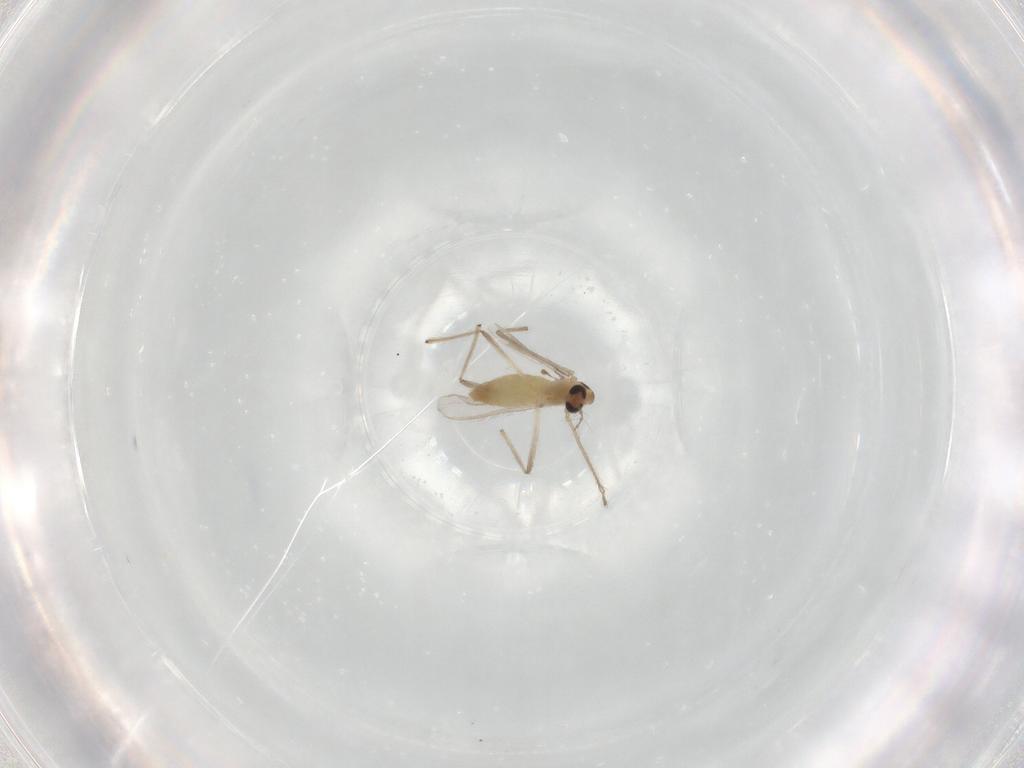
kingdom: Animalia
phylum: Arthropoda
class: Insecta
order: Diptera
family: Chironomidae
